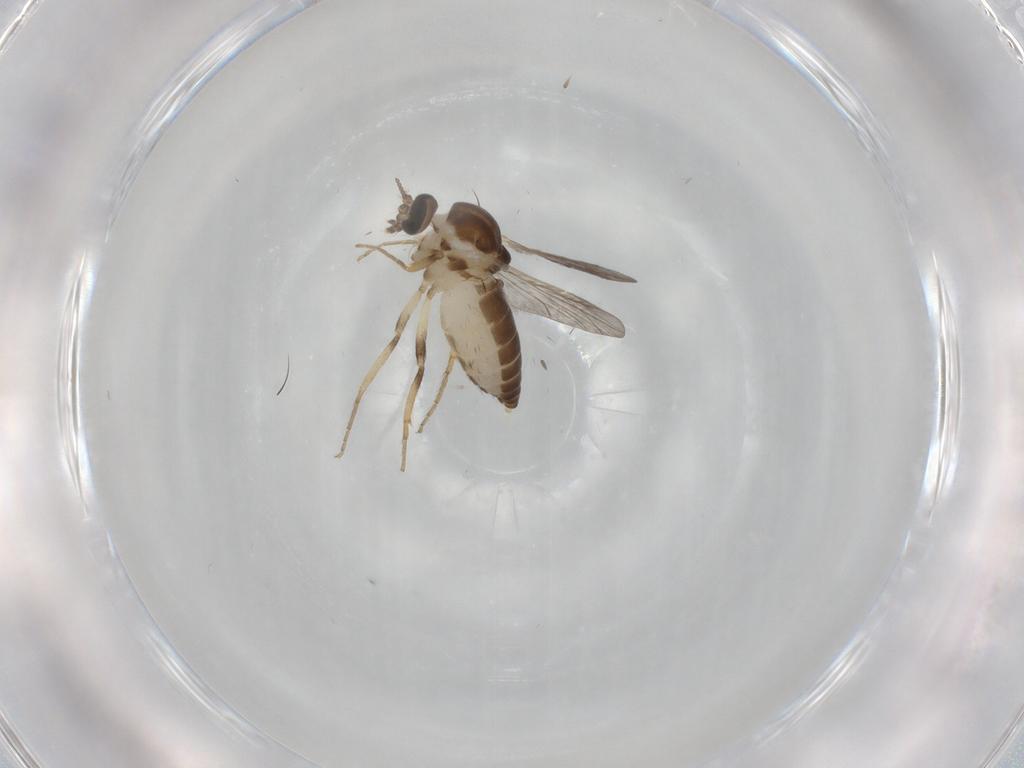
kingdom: Animalia
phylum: Arthropoda
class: Insecta
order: Diptera
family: Ceratopogonidae
